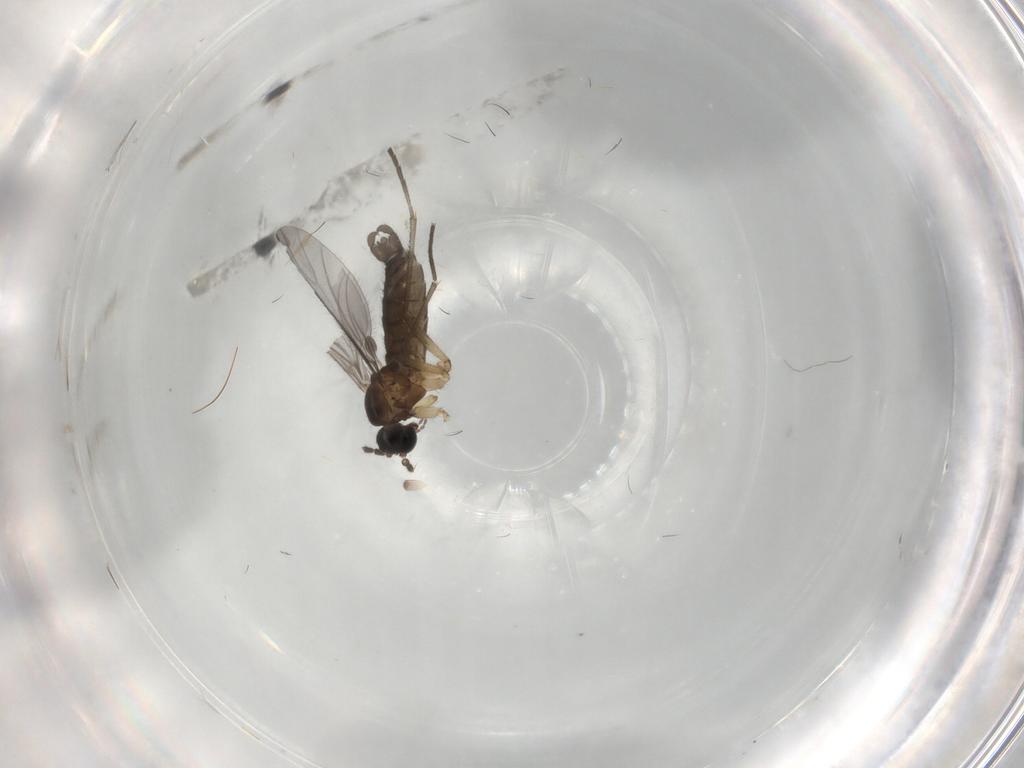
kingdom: Animalia
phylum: Arthropoda
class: Insecta
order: Diptera
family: Sciaridae
